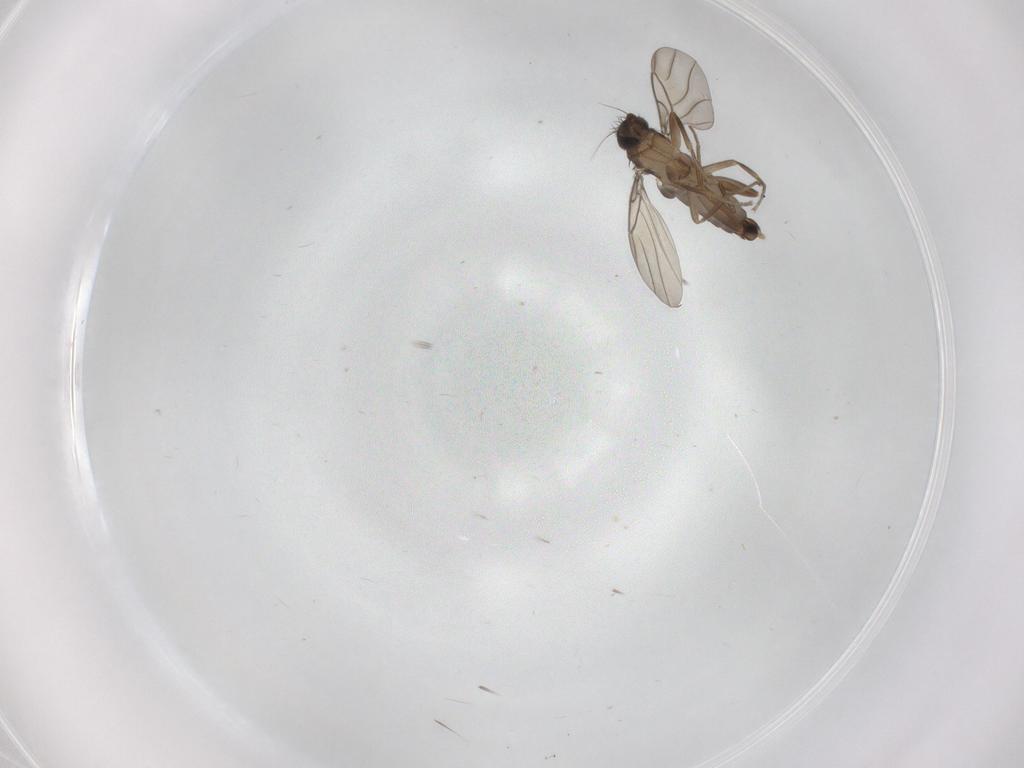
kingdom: Animalia
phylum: Arthropoda
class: Insecta
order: Diptera
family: Phoridae
